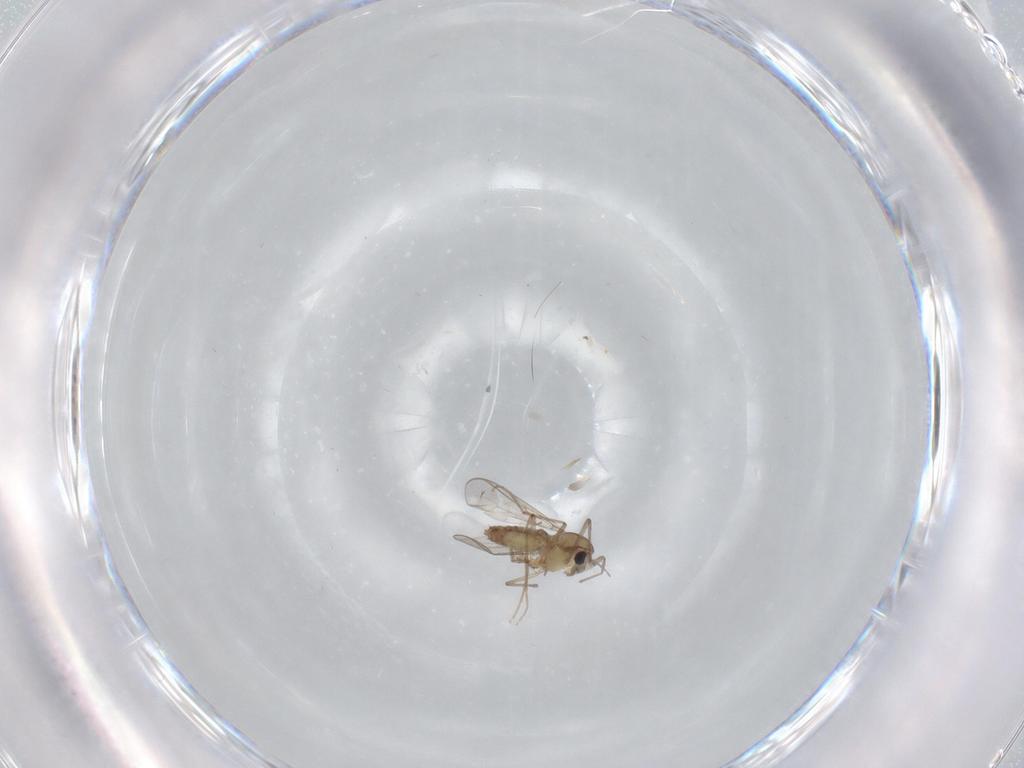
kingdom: Animalia
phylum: Arthropoda
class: Insecta
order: Diptera
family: Chironomidae
